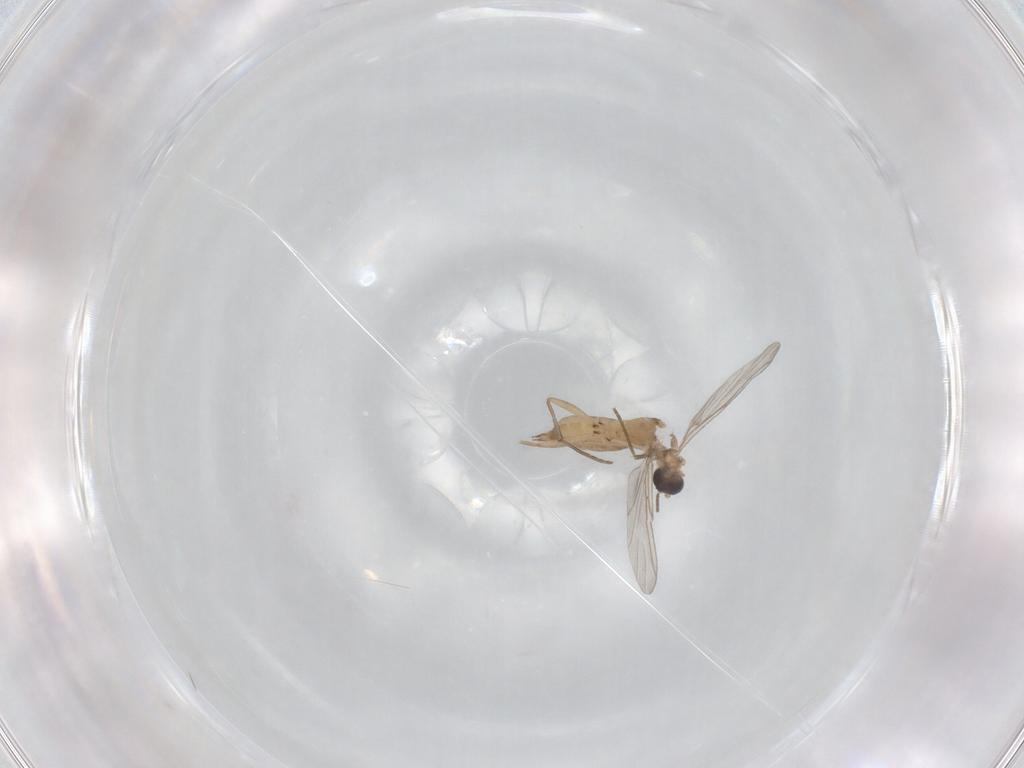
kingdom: Animalia
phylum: Arthropoda
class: Insecta
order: Diptera
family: Sciaridae
